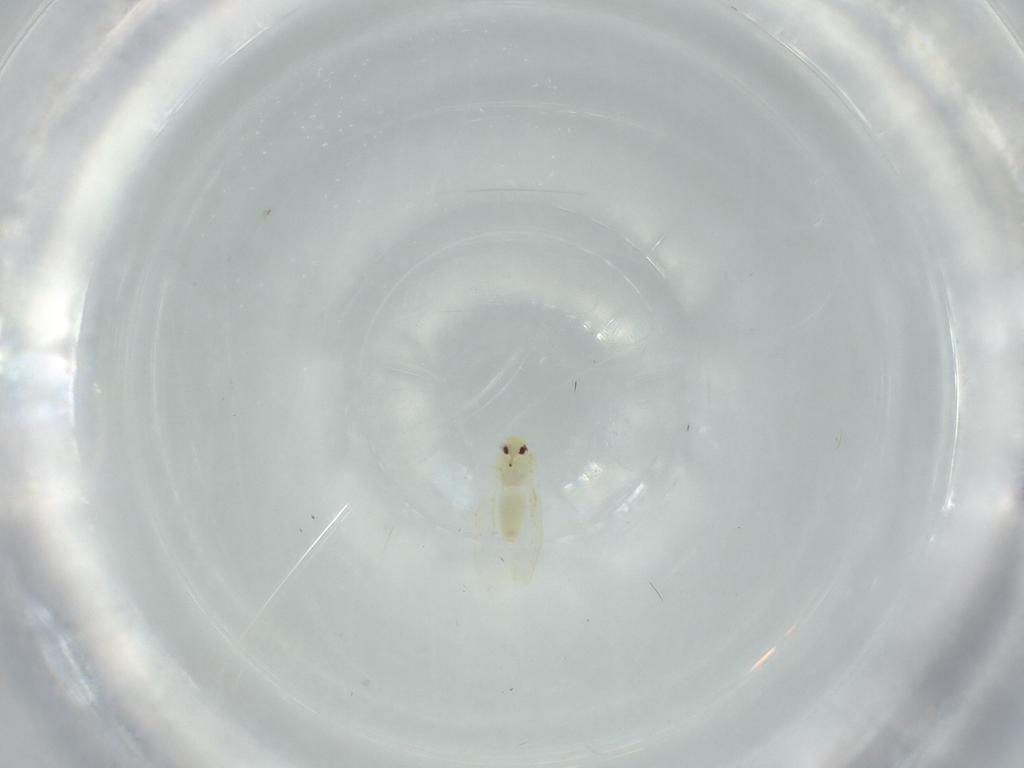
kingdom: Animalia
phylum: Arthropoda
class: Insecta
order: Hemiptera
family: Aleyrodidae
